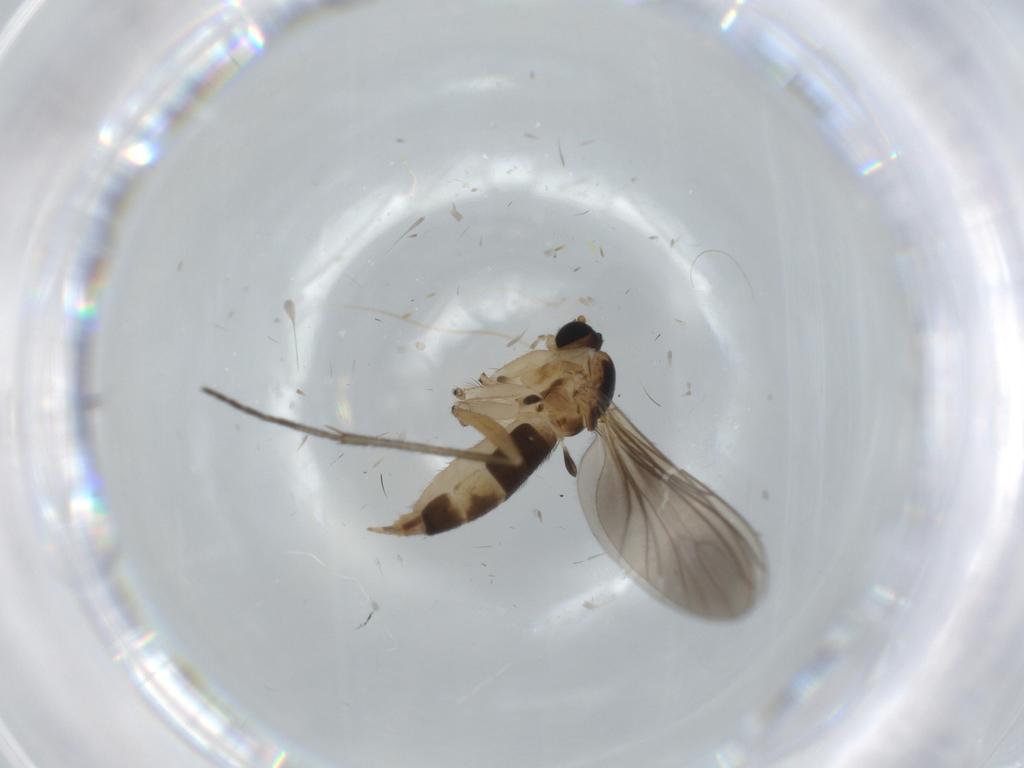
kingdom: Animalia
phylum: Arthropoda
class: Insecta
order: Diptera
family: Sciaridae
